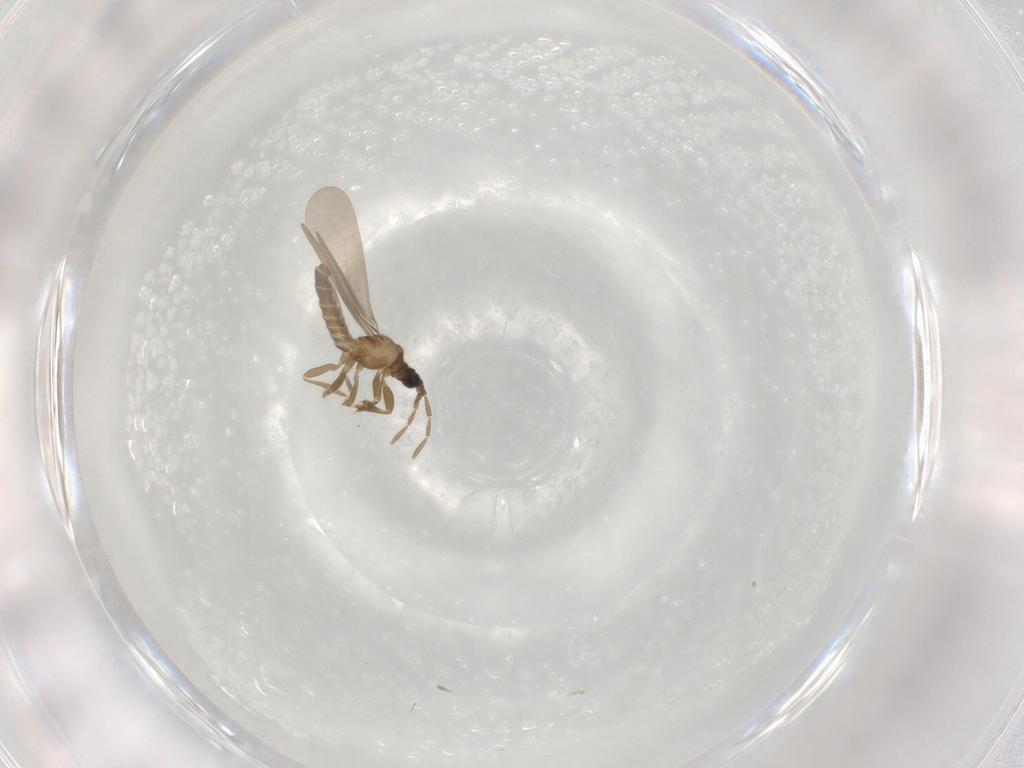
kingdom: Animalia
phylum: Arthropoda
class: Insecta
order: Hemiptera
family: Enicocephalidae
